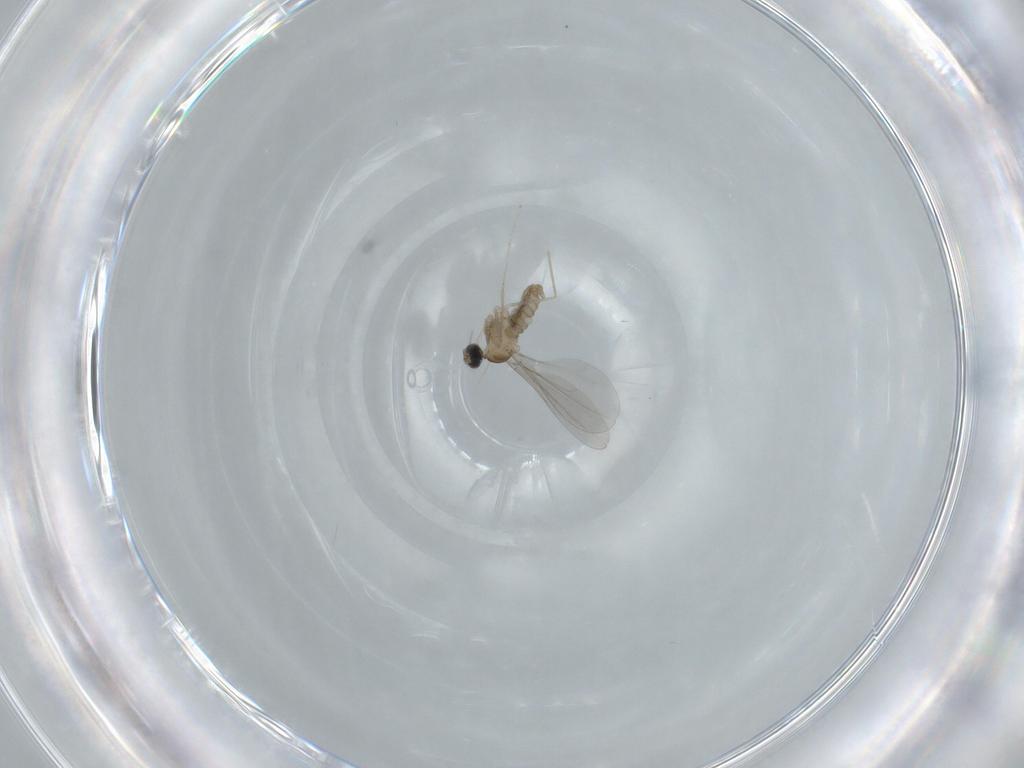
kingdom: Animalia
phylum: Arthropoda
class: Insecta
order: Diptera
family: Cecidomyiidae
